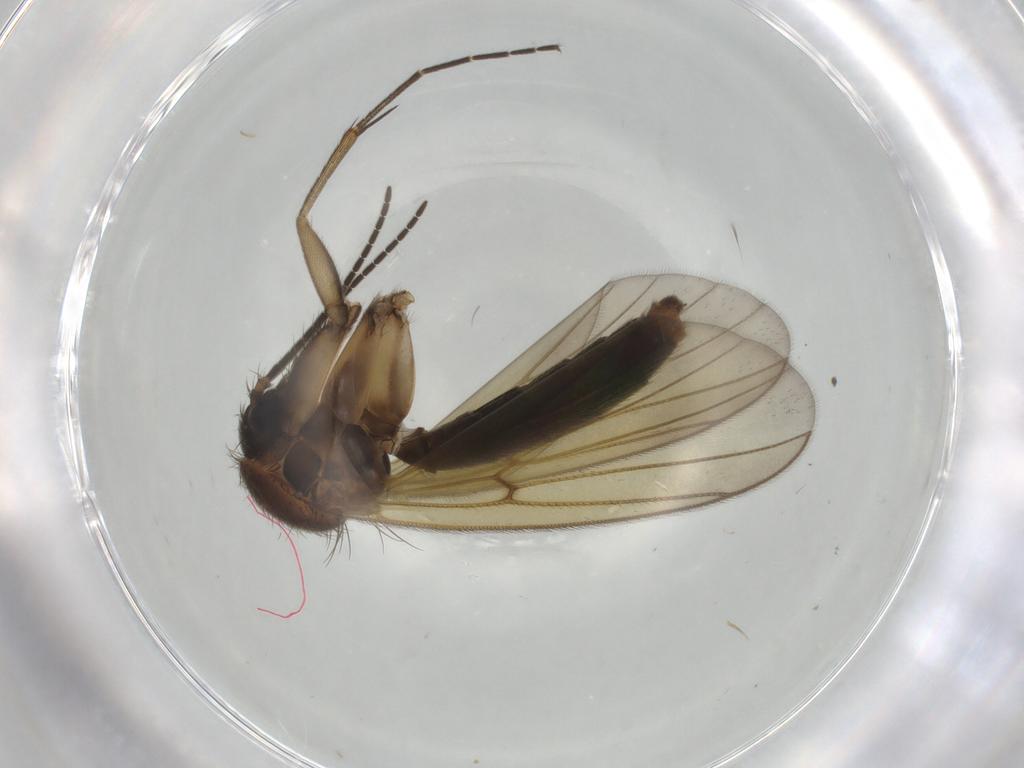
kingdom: Animalia
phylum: Arthropoda
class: Insecta
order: Diptera
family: Mycetophilidae
